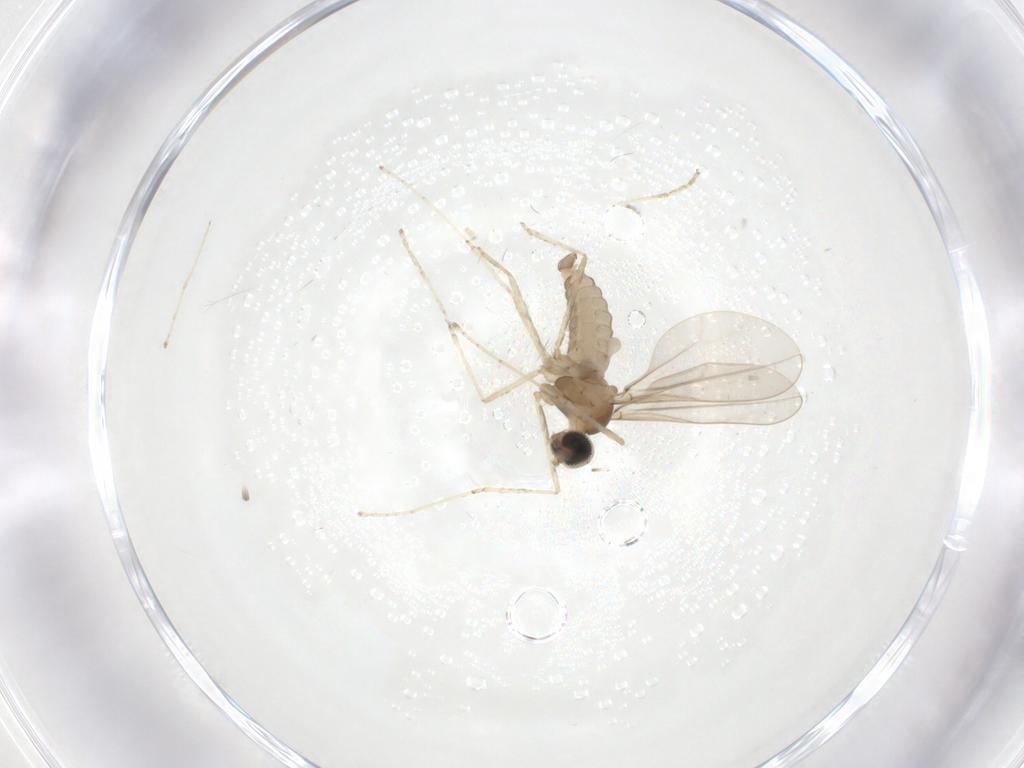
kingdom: Animalia
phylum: Arthropoda
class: Insecta
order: Diptera
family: Cecidomyiidae
